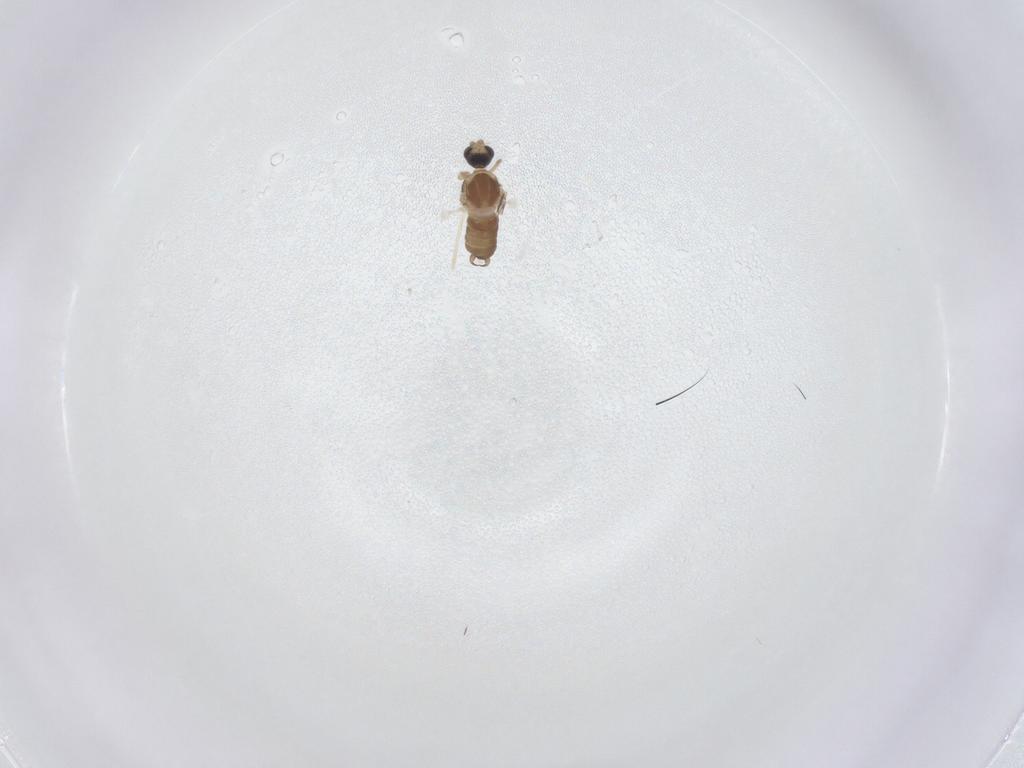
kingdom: Animalia
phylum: Arthropoda
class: Insecta
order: Diptera
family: Cecidomyiidae
